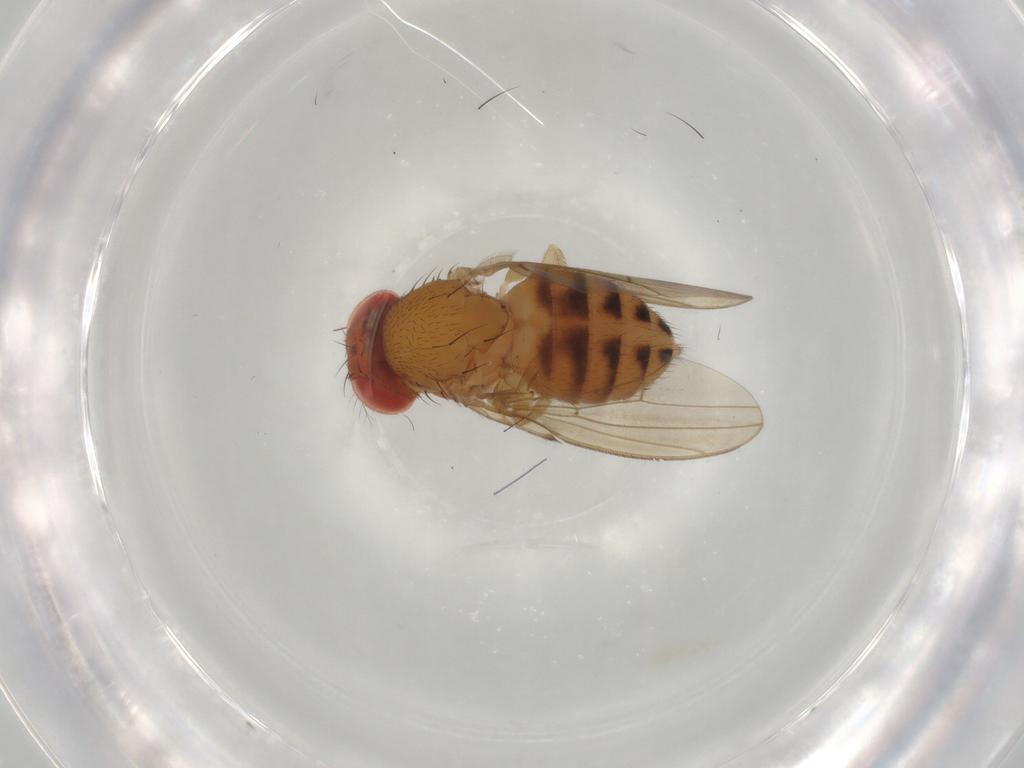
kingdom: Animalia
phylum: Arthropoda
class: Insecta
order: Diptera
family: Drosophilidae
